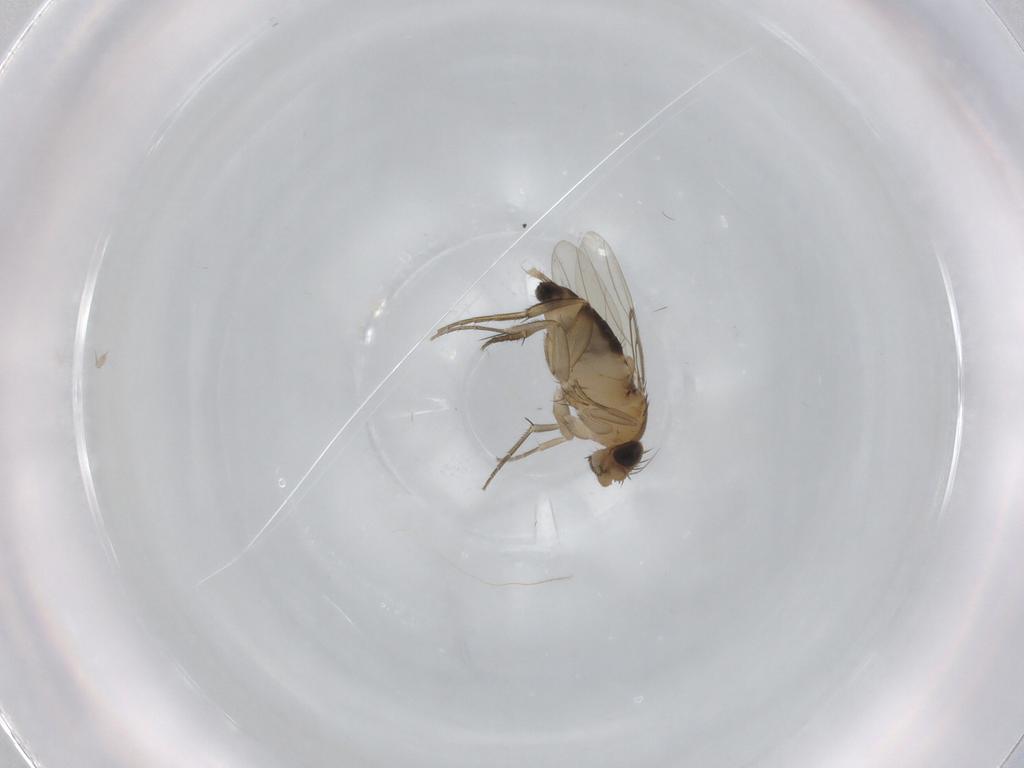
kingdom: Animalia
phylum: Arthropoda
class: Insecta
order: Diptera
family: Phoridae
